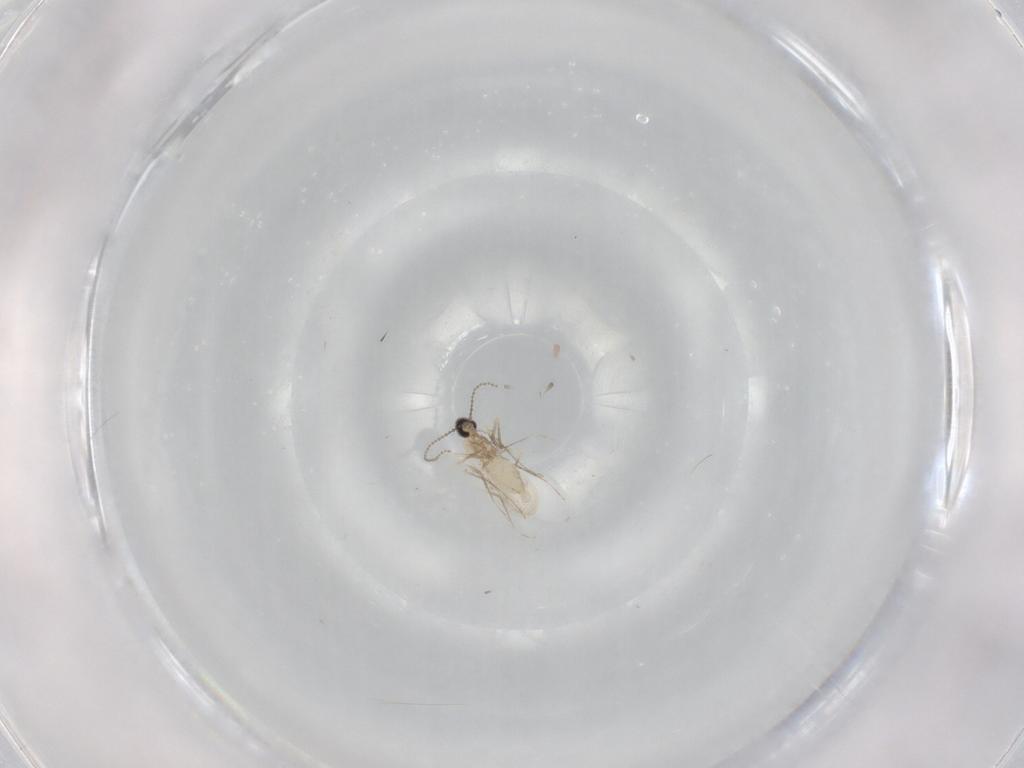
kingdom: Animalia
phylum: Arthropoda
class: Insecta
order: Diptera
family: Cecidomyiidae
